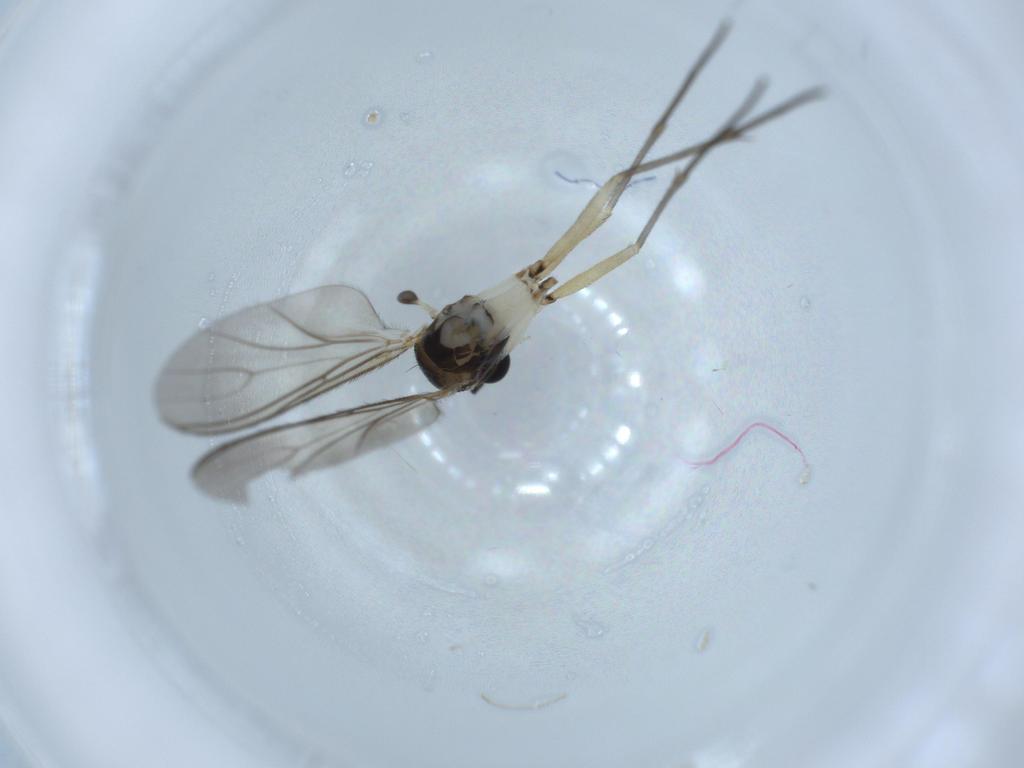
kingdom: Animalia
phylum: Arthropoda
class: Insecta
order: Diptera
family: Sciaridae
